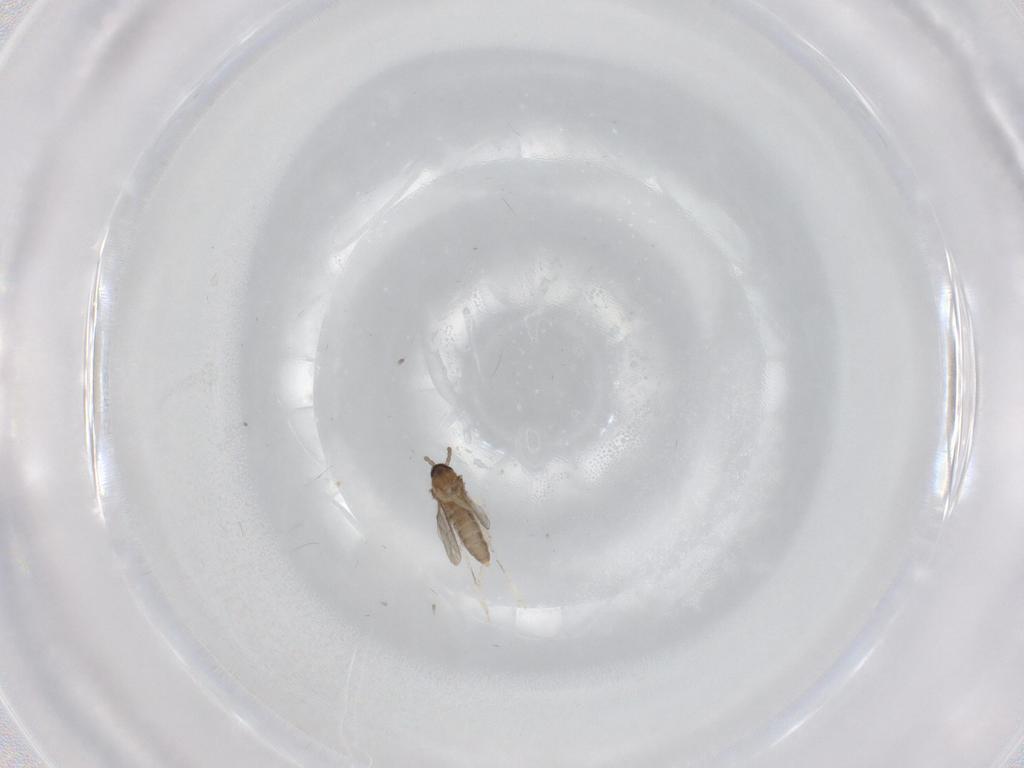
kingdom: Animalia
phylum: Arthropoda
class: Insecta
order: Diptera
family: Cecidomyiidae
